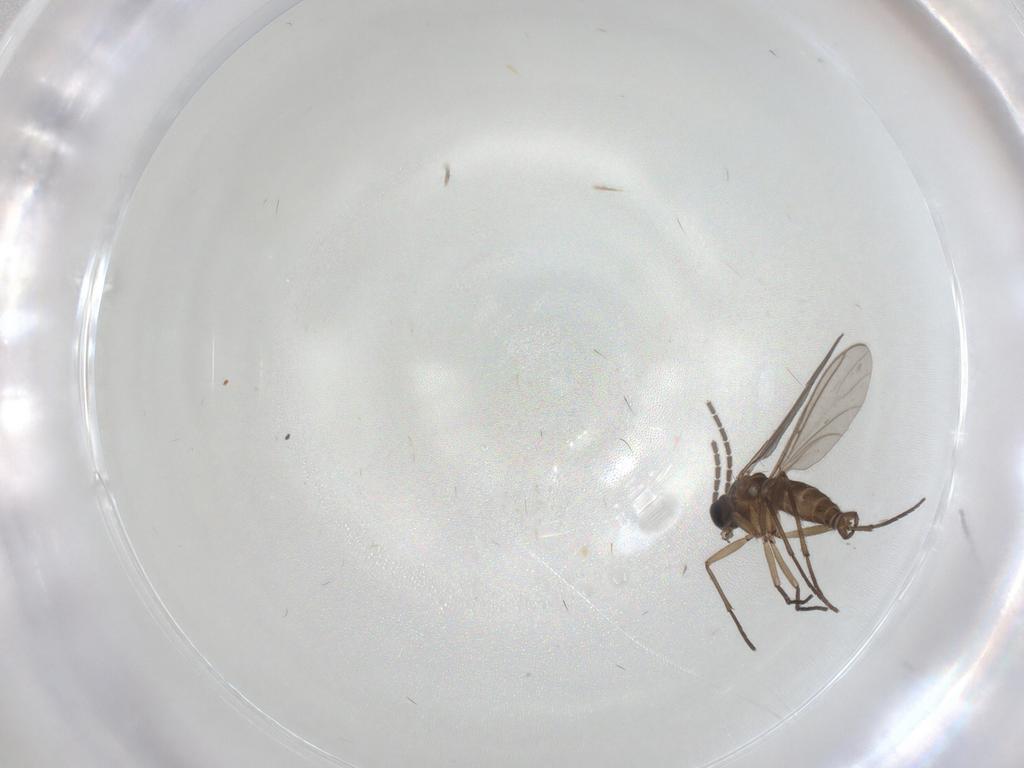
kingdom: Animalia
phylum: Arthropoda
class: Insecta
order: Diptera
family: Sciaridae
